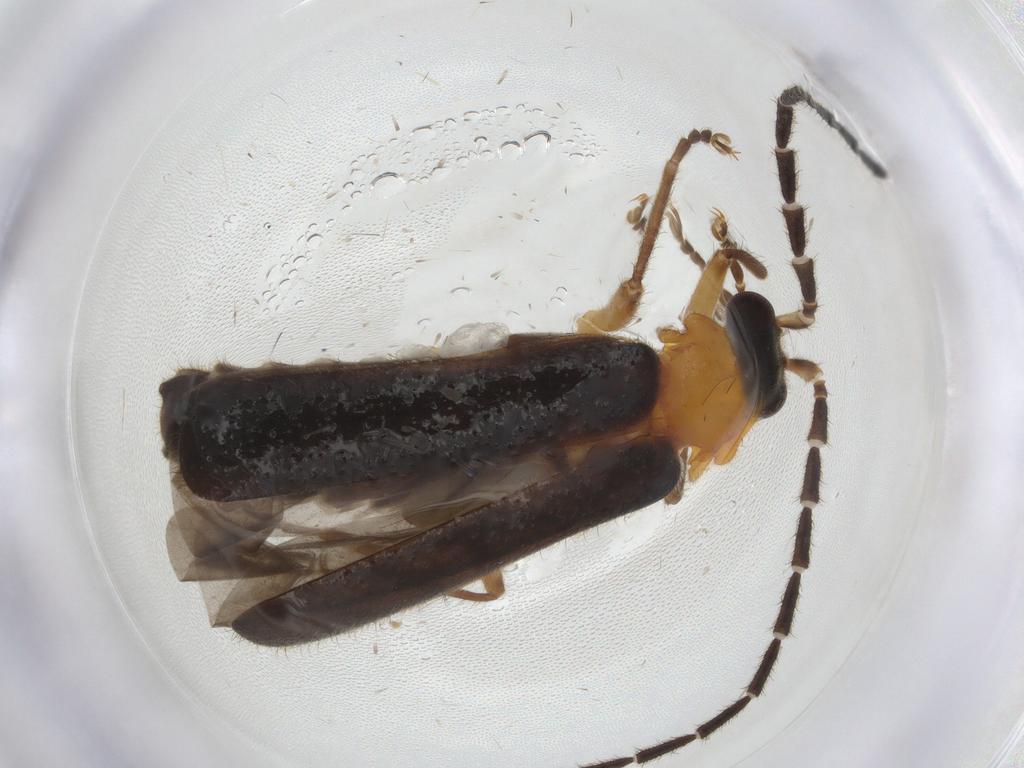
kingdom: Animalia
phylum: Arthropoda
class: Insecta
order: Coleoptera
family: Cantharidae
